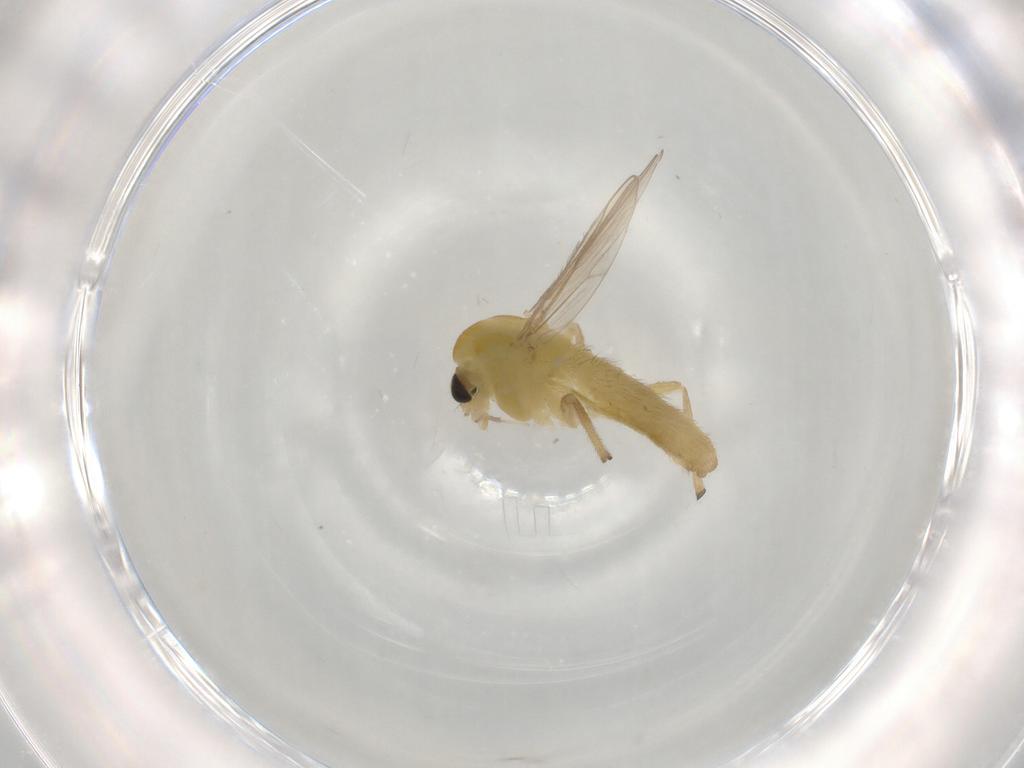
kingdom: Animalia
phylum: Arthropoda
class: Insecta
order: Diptera
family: Chironomidae
